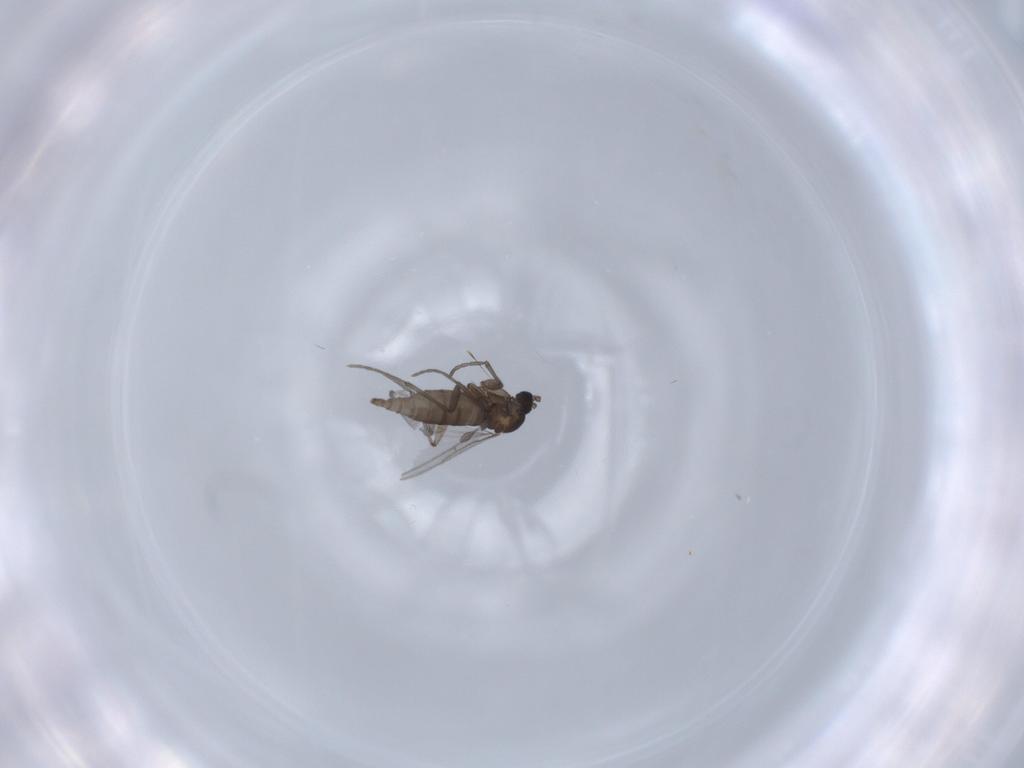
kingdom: Animalia
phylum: Arthropoda
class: Insecta
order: Diptera
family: Sciaridae
